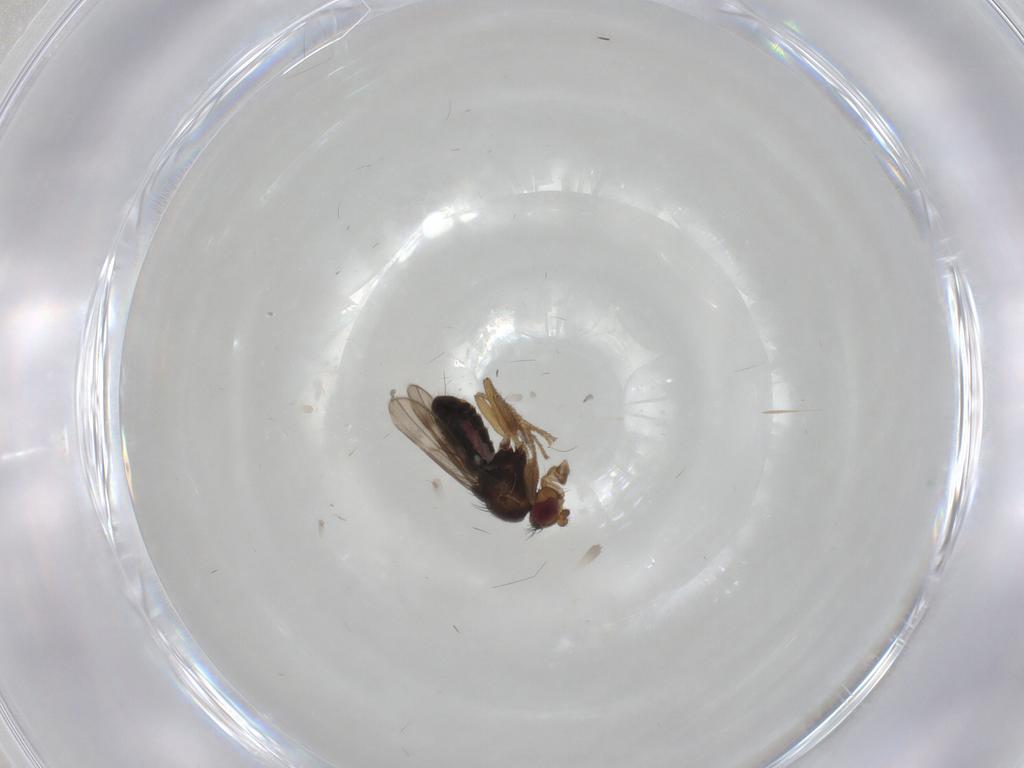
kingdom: Animalia
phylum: Arthropoda
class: Insecta
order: Diptera
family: Sphaeroceridae
